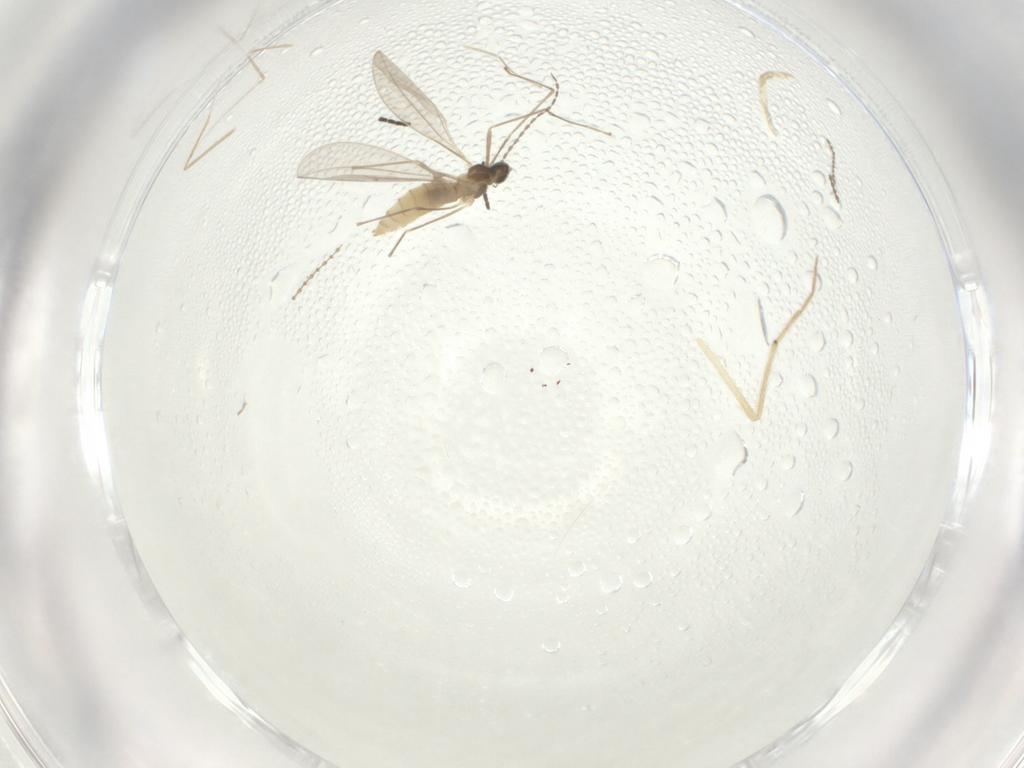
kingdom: Animalia
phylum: Arthropoda
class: Insecta
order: Diptera
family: Cecidomyiidae
